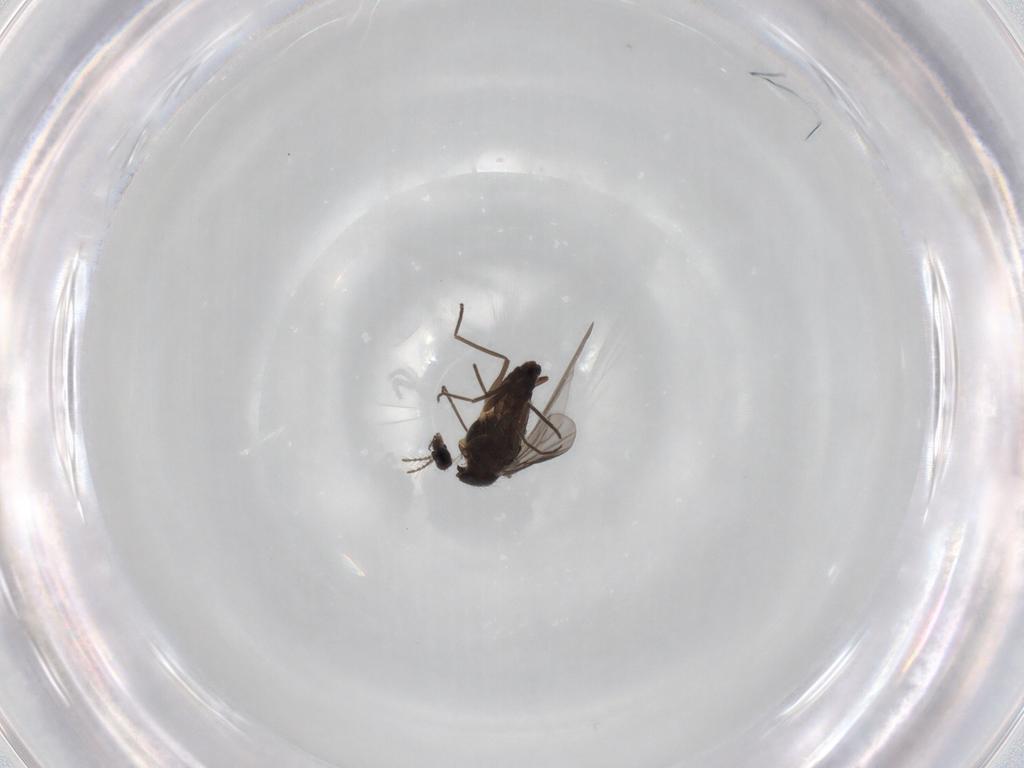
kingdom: Animalia
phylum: Arthropoda
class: Insecta
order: Diptera
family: Chironomidae
